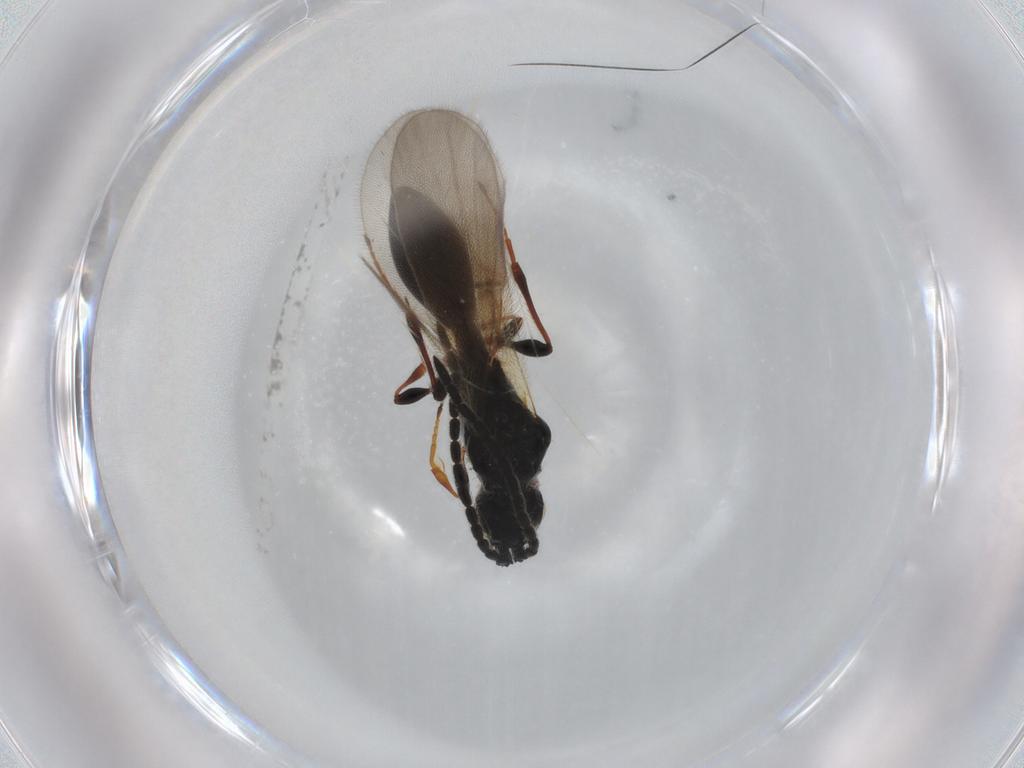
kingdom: Animalia
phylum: Arthropoda
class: Insecta
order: Hymenoptera
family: Diapriidae
